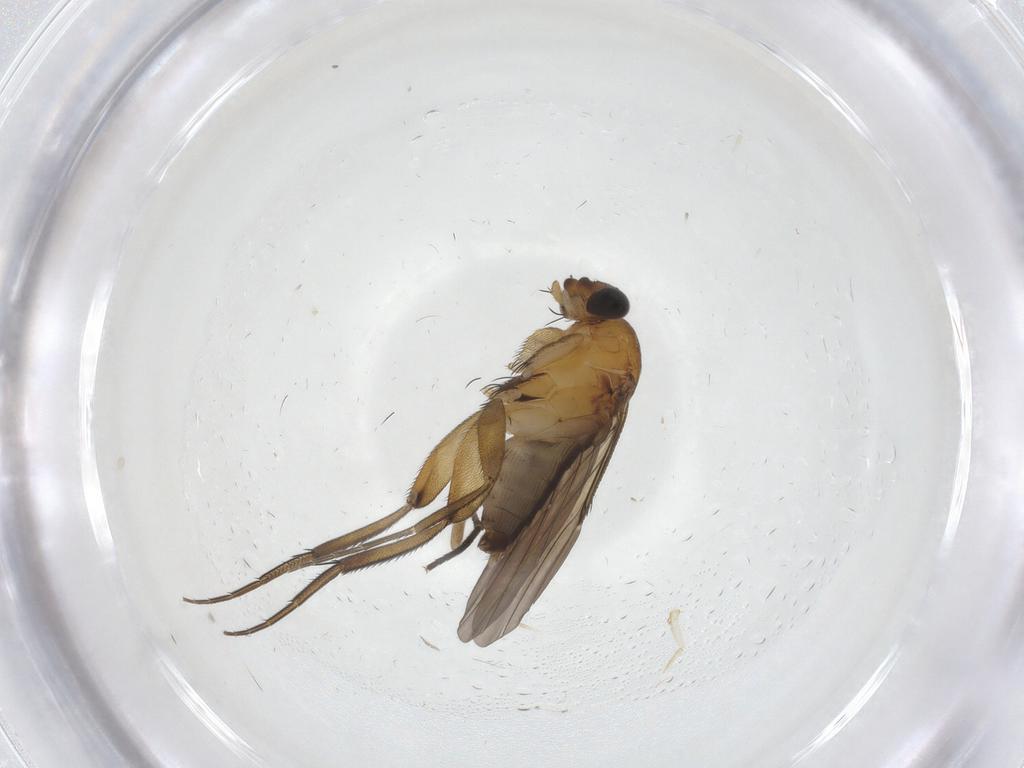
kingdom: Animalia
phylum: Arthropoda
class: Insecta
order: Diptera
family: Phoridae
